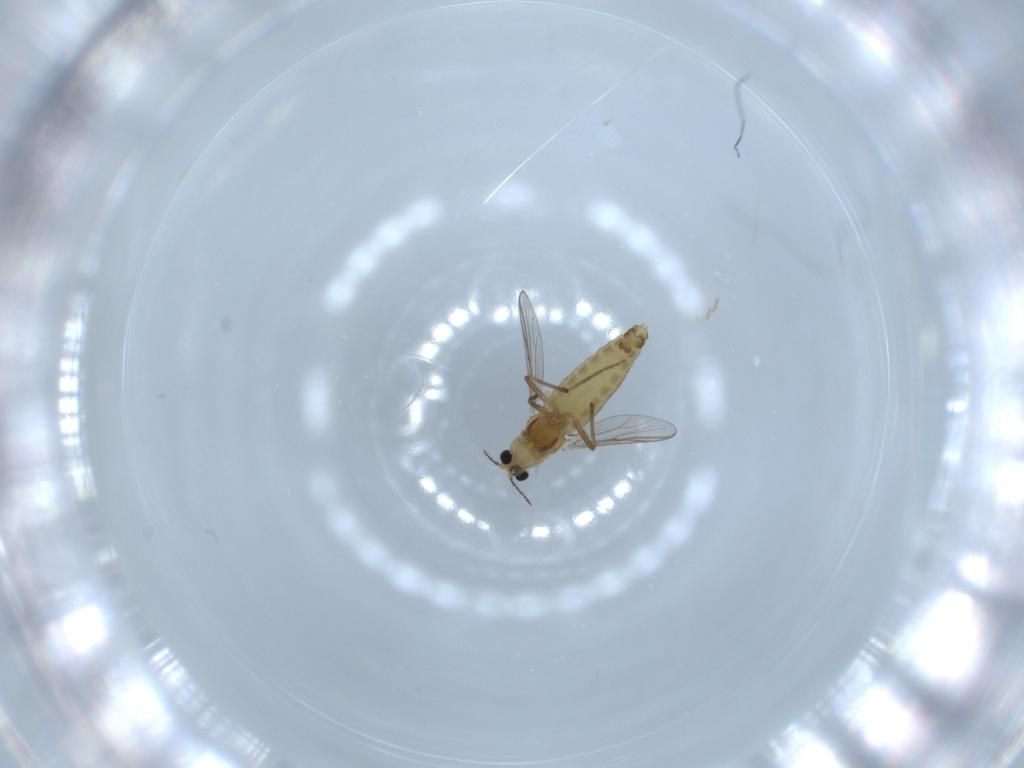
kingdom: Animalia
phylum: Arthropoda
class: Insecta
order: Diptera
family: Chironomidae
